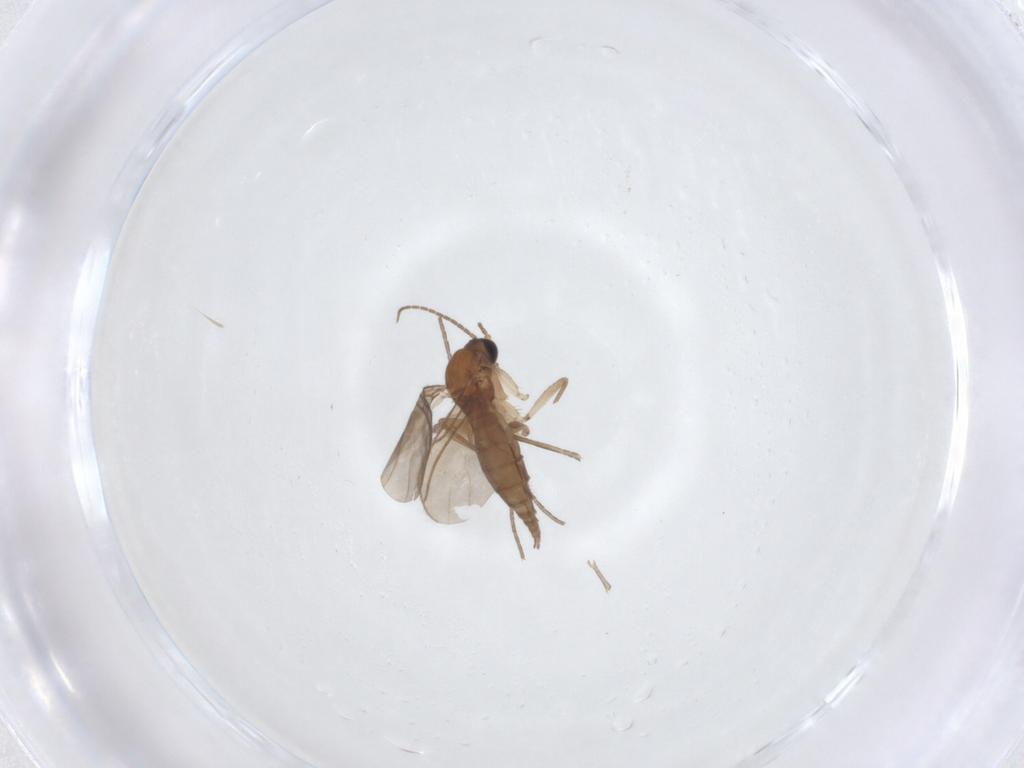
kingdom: Animalia
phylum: Arthropoda
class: Insecta
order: Diptera
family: Sciaridae
